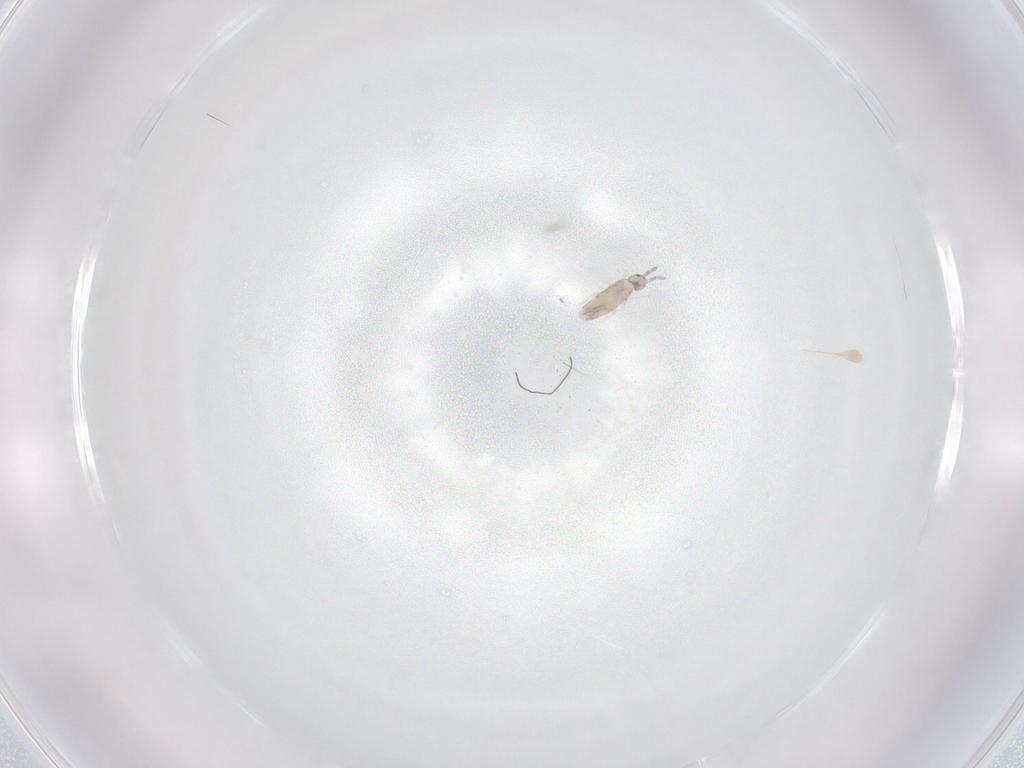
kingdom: Animalia
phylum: Arthropoda
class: Collembola
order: Entomobryomorpha
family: Entomobryidae
